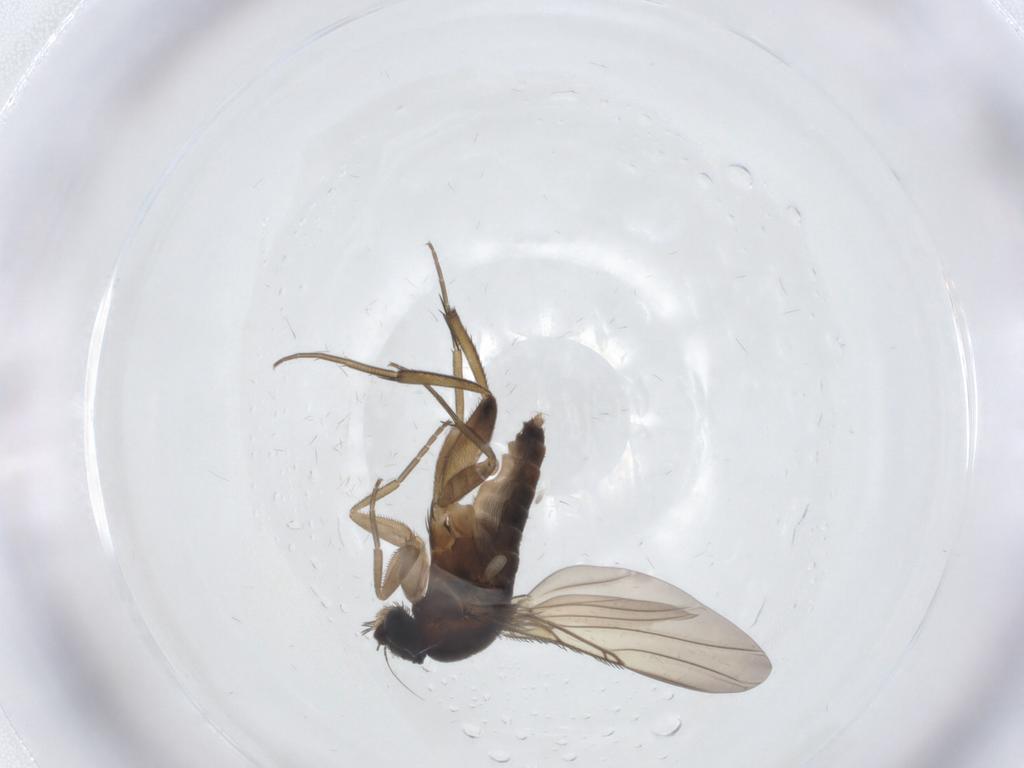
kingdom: Animalia
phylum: Arthropoda
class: Insecta
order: Diptera
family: Phoridae
